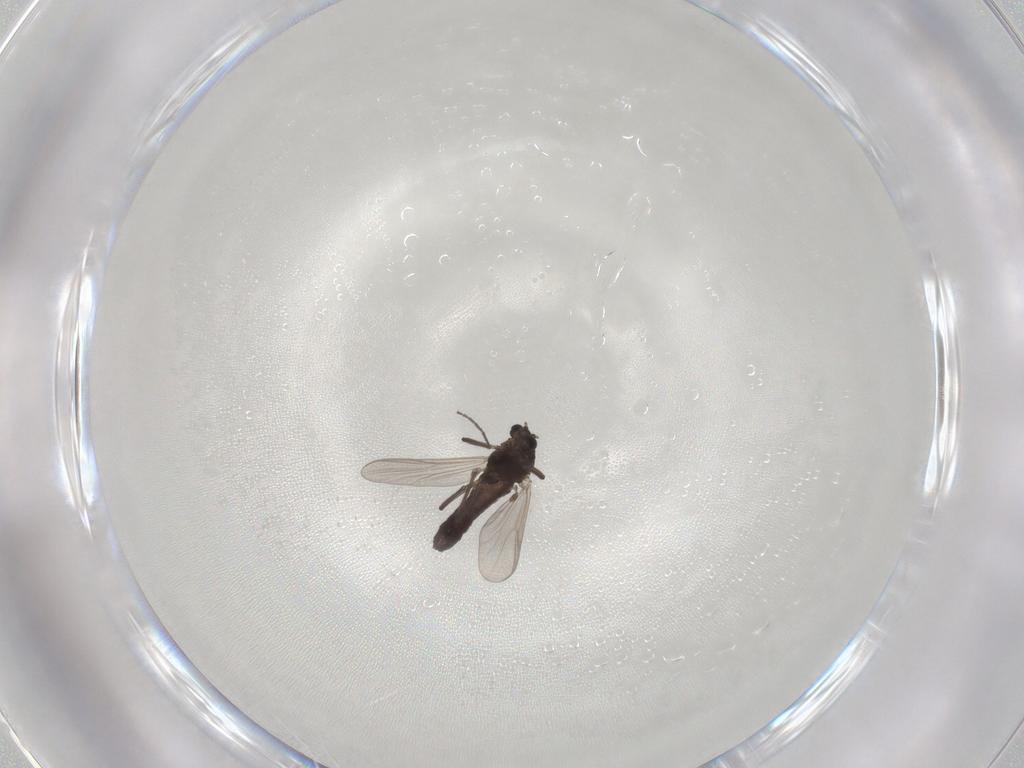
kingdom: Animalia
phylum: Arthropoda
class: Insecta
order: Diptera
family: Chironomidae
